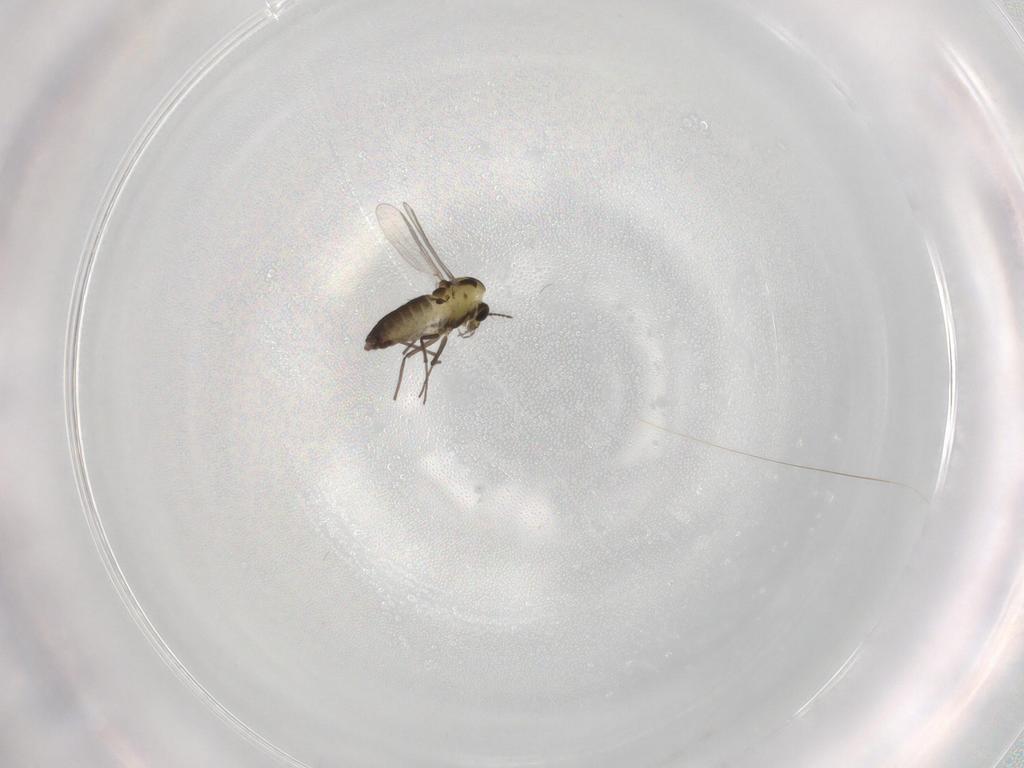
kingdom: Animalia
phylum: Arthropoda
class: Insecta
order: Diptera
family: Chironomidae
